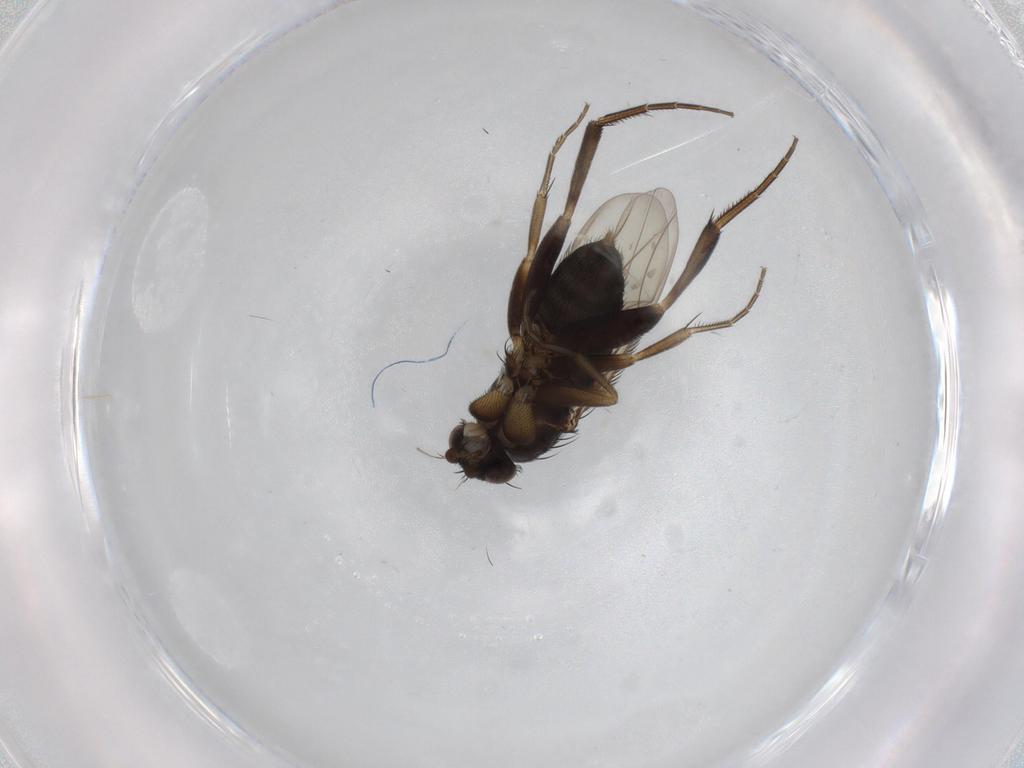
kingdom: Animalia
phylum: Arthropoda
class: Insecta
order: Diptera
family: Phoridae
